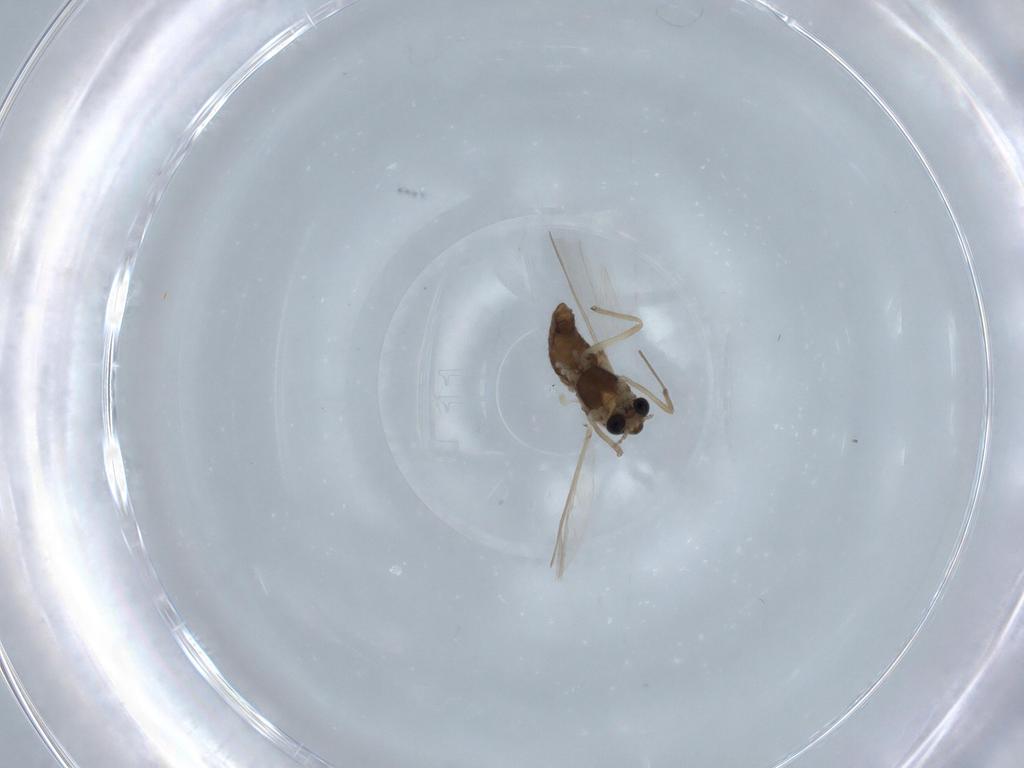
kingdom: Animalia
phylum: Arthropoda
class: Insecta
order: Diptera
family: Chironomidae
